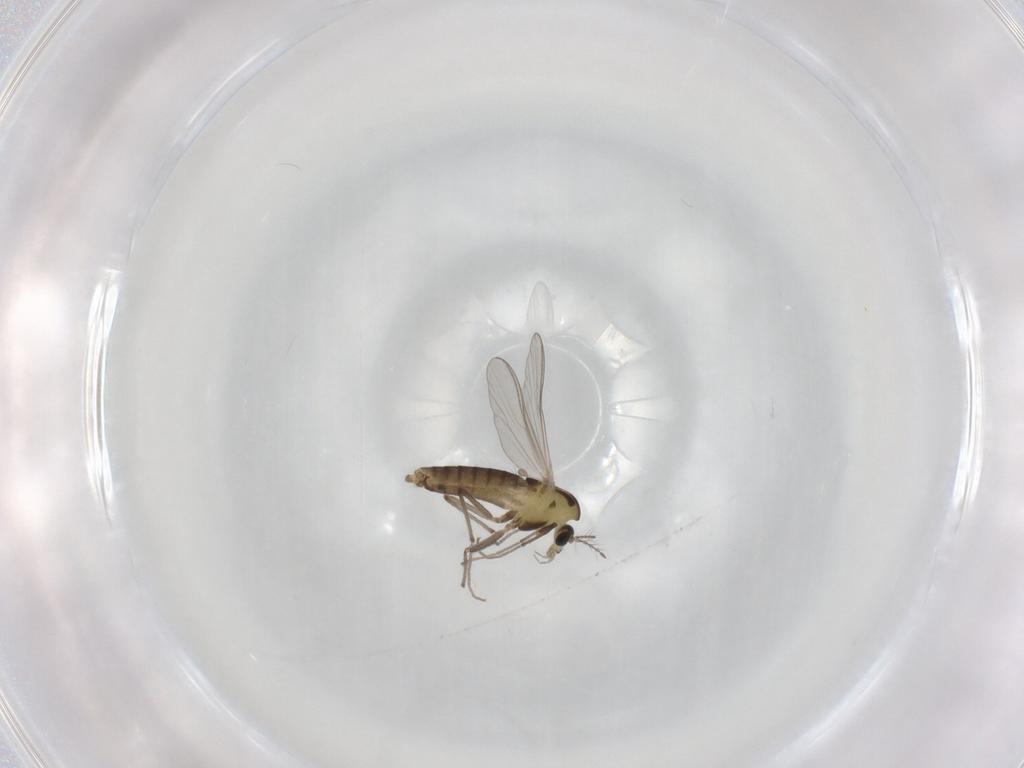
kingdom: Animalia
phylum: Arthropoda
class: Insecta
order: Diptera
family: Chironomidae
